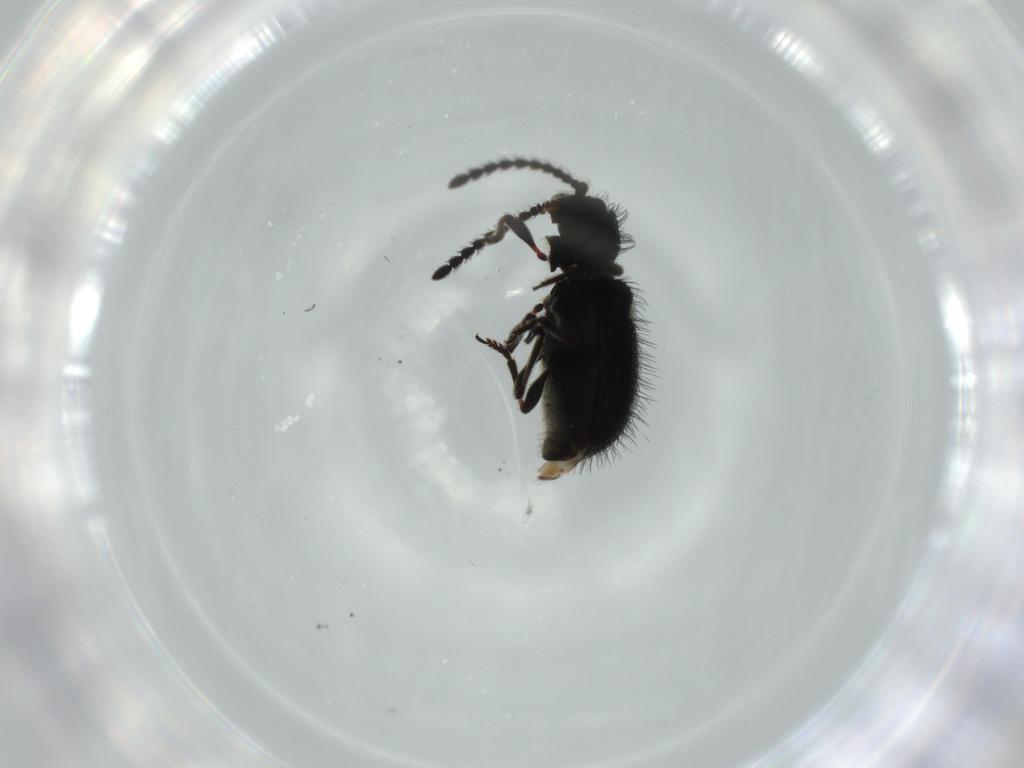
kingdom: Animalia
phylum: Arthropoda
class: Insecta
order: Coleoptera
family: Ptinidae
